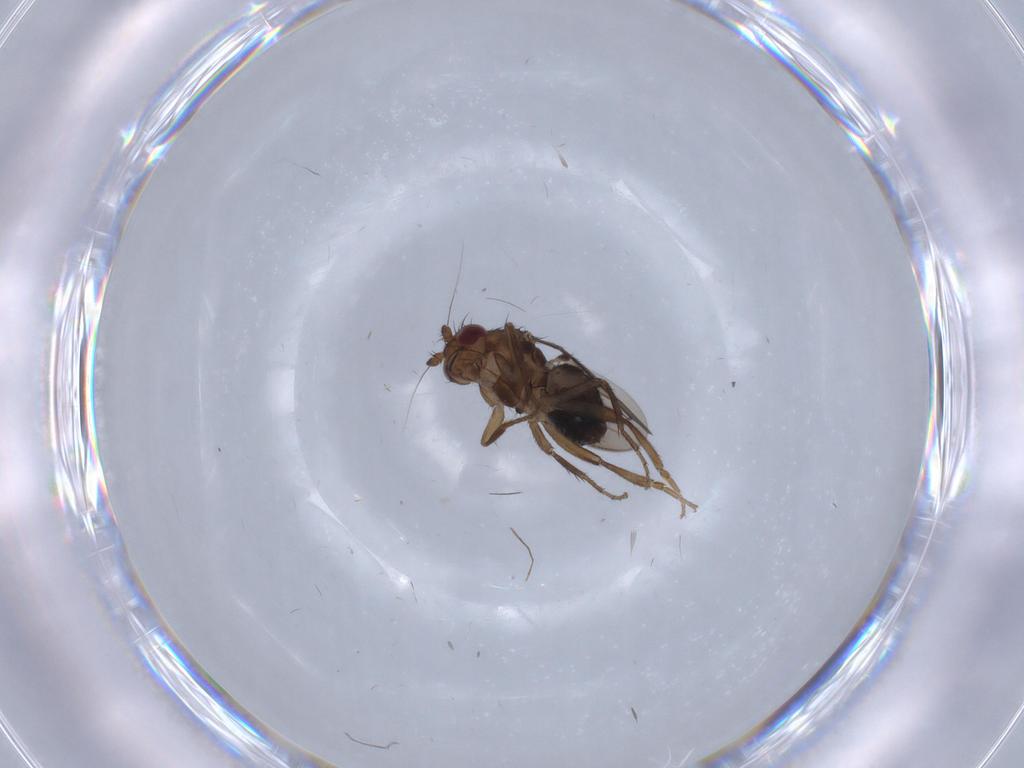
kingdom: Animalia
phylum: Arthropoda
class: Insecta
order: Diptera
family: Sphaeroceridae
